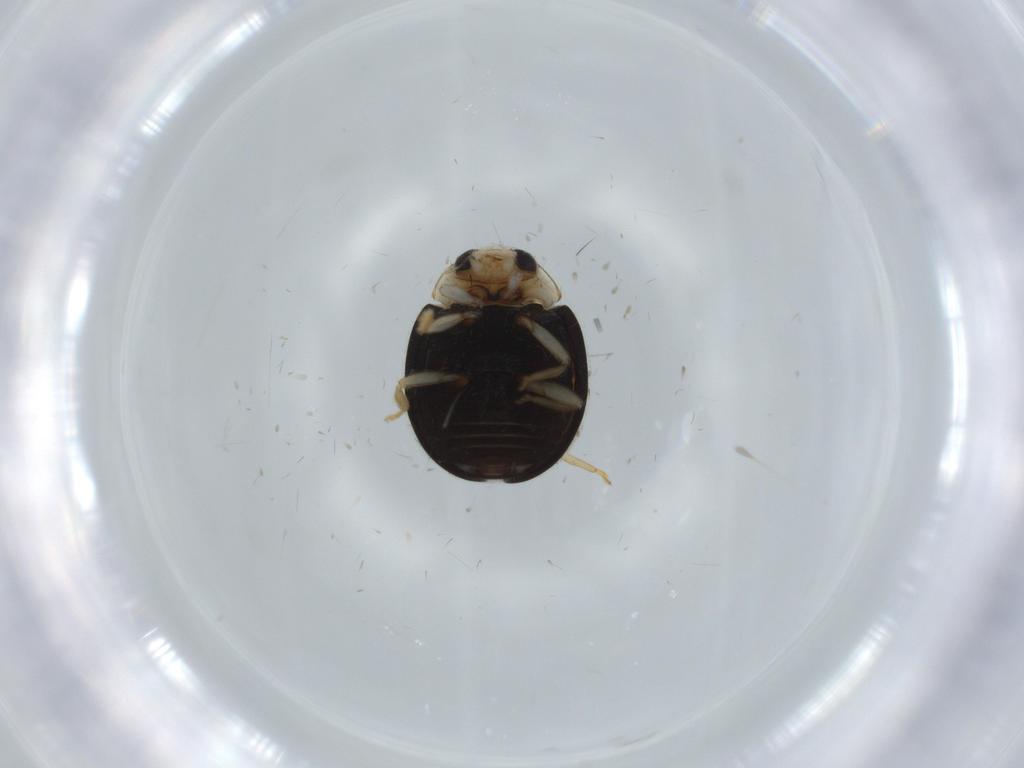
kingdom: Animalia
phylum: Arthropoda
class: Insecta
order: Coleoptera
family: Coccinellidae
